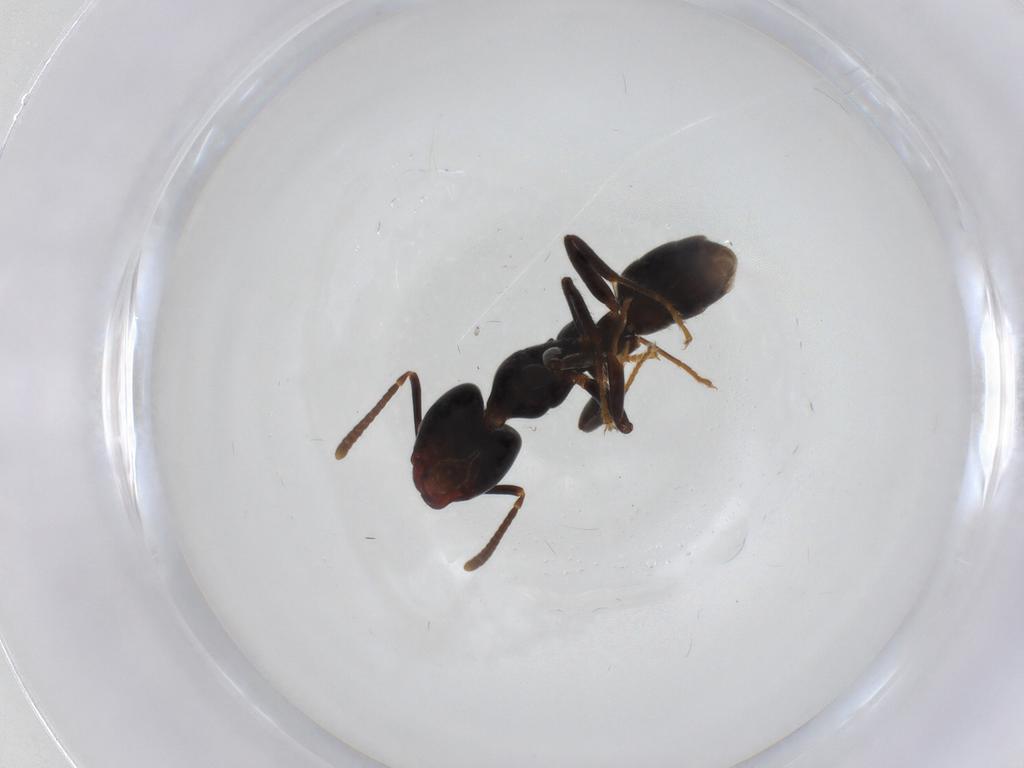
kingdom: Animalia
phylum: Arthropoda
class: Insecta
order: Hymenoptera
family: Formicidae
